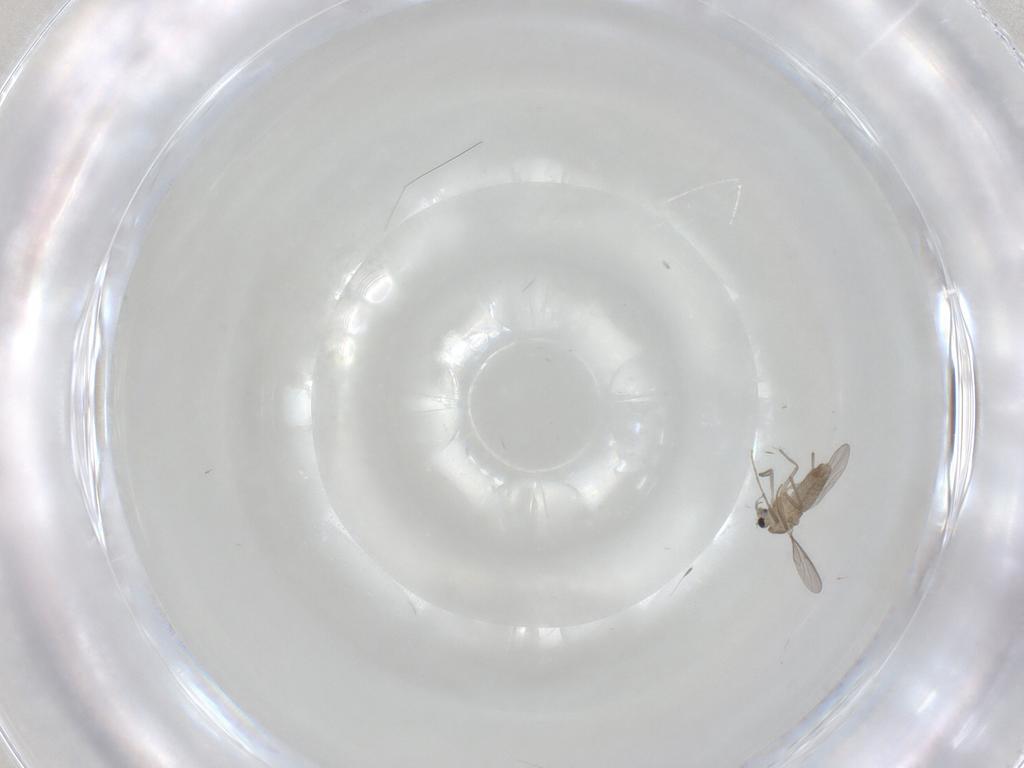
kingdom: Animalia
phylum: Arthropoda
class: Insecta
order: Diptera
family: Chironomidae
